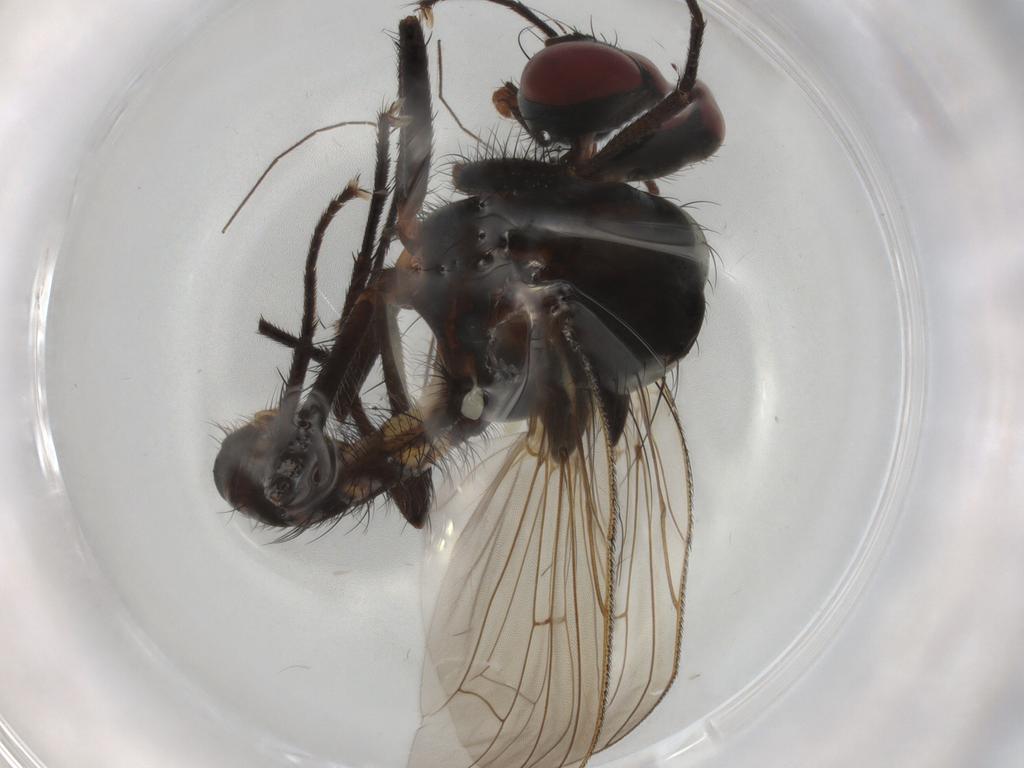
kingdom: Animalia
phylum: Arthropoda
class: Insecta
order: Diptera
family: Anthomyiidae
